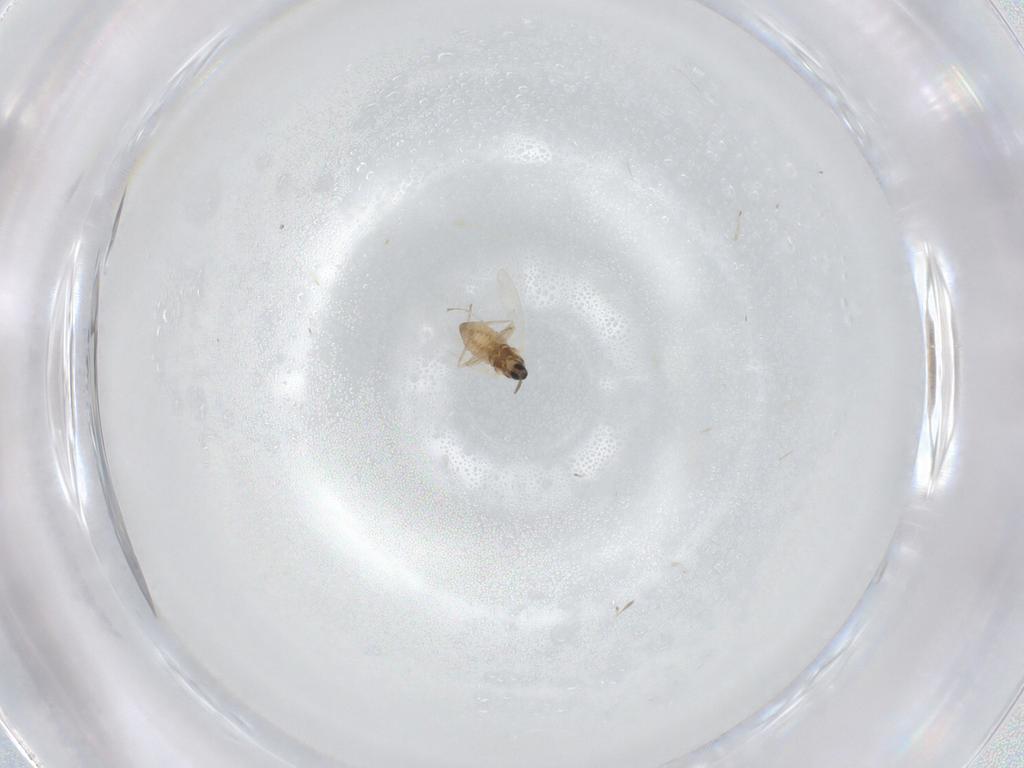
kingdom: Animalia
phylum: Arthropoda
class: Insecta
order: Diptera
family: Cecidomyiidae
